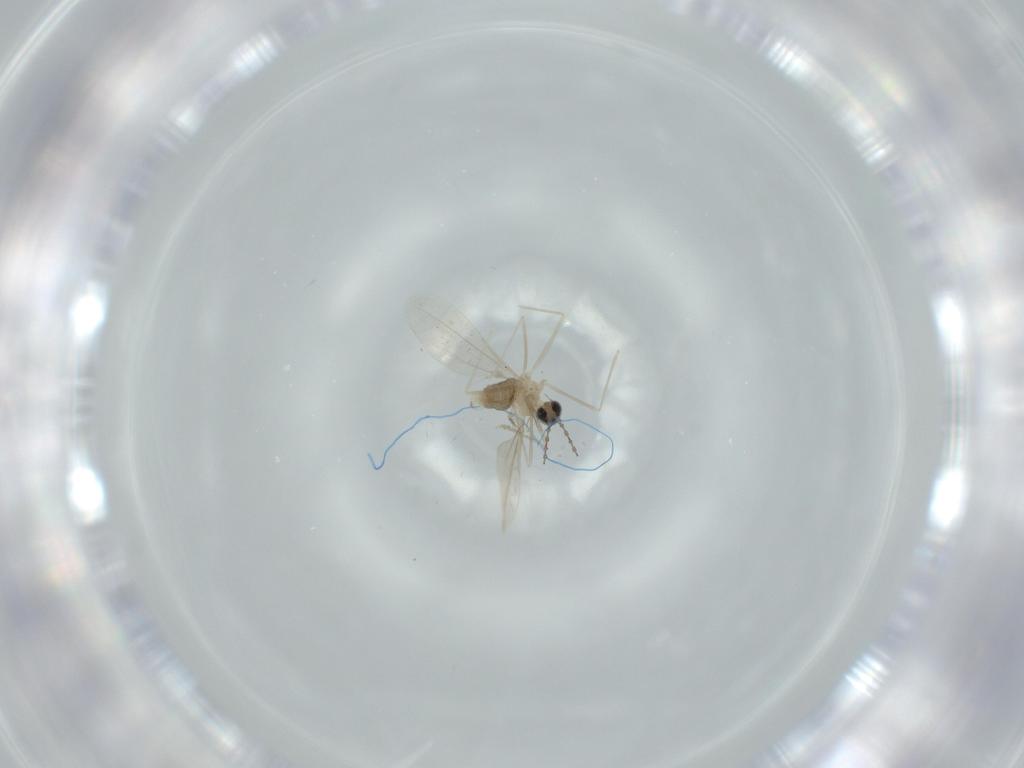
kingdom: Animalia
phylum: Arthropoda
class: Insecta
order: Diptera
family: Cecidomyiidae
